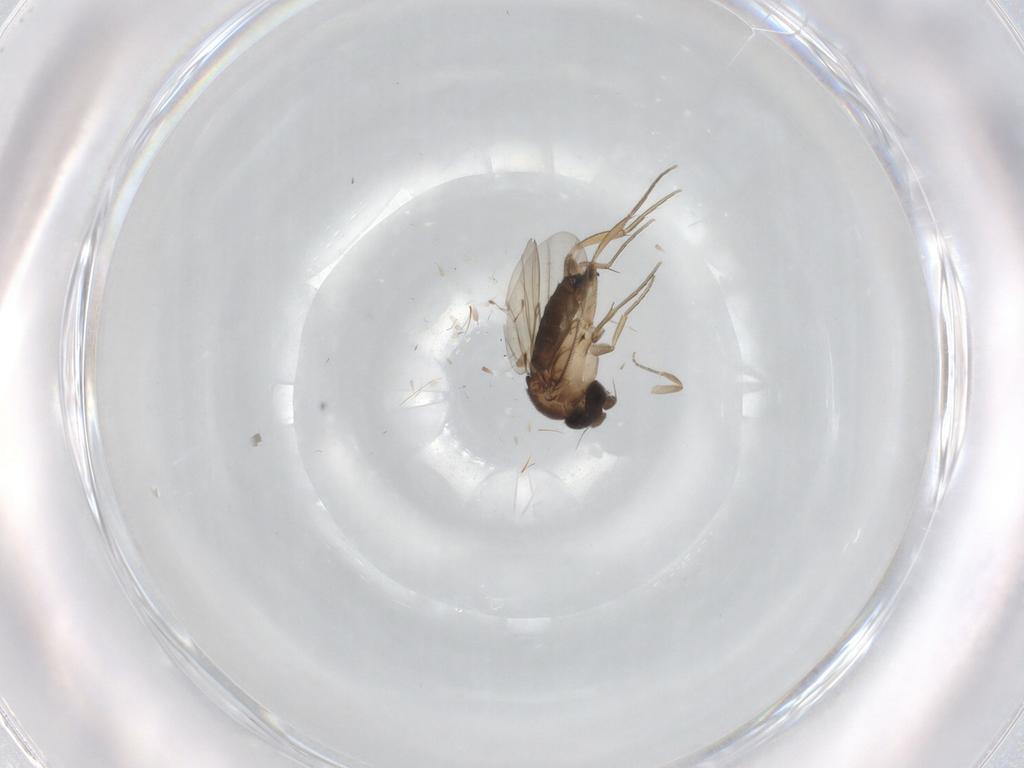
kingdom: Animalia
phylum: Arthropoda
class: Insecta
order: Diptera
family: Phoridae
